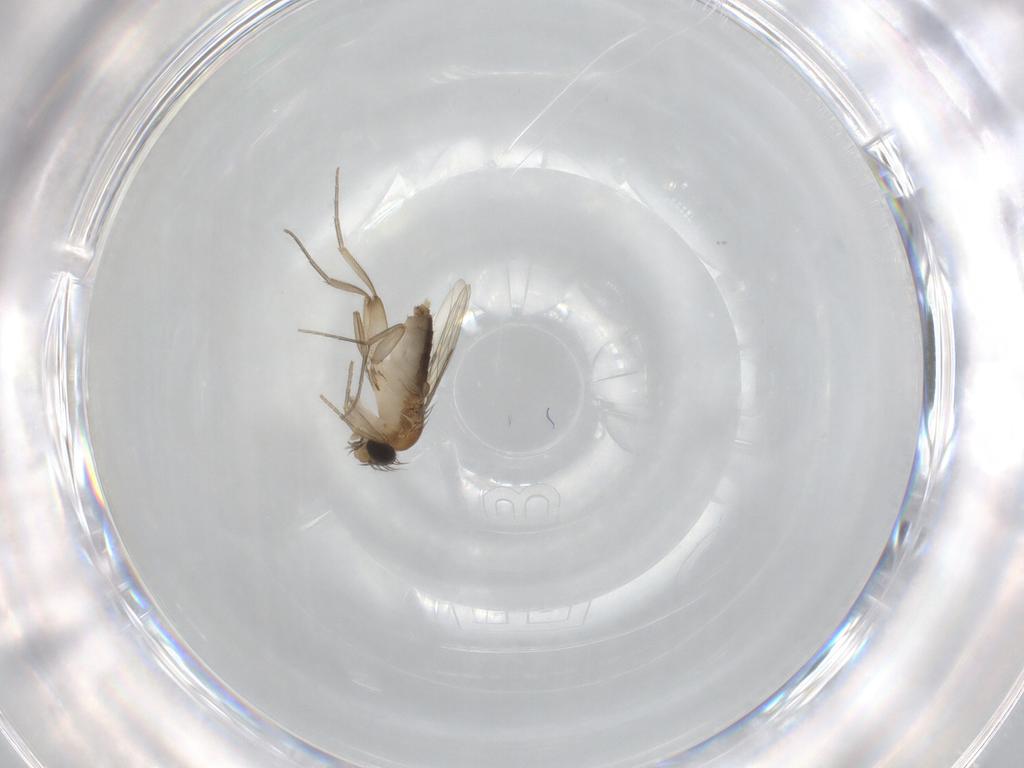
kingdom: Animalia
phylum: Arthropoda
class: Insecta
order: Diptera
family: Phoridae
